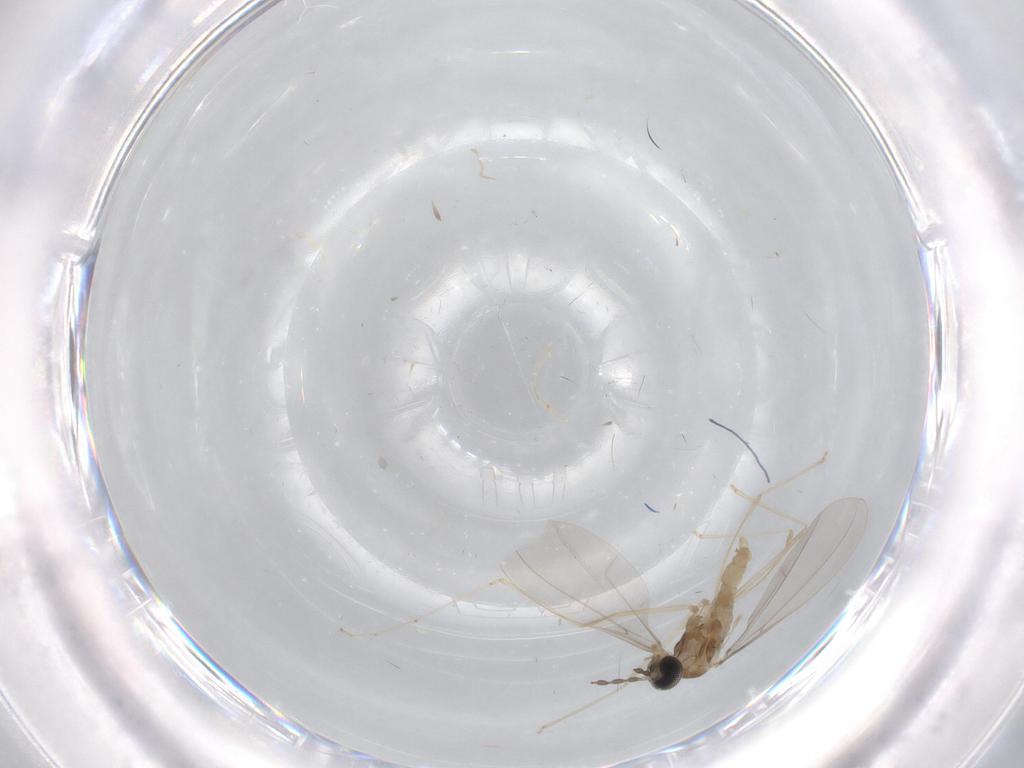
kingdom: Animalia
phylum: Arthropoda
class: Insecta
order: Diptera
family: Cecidomyiidae
